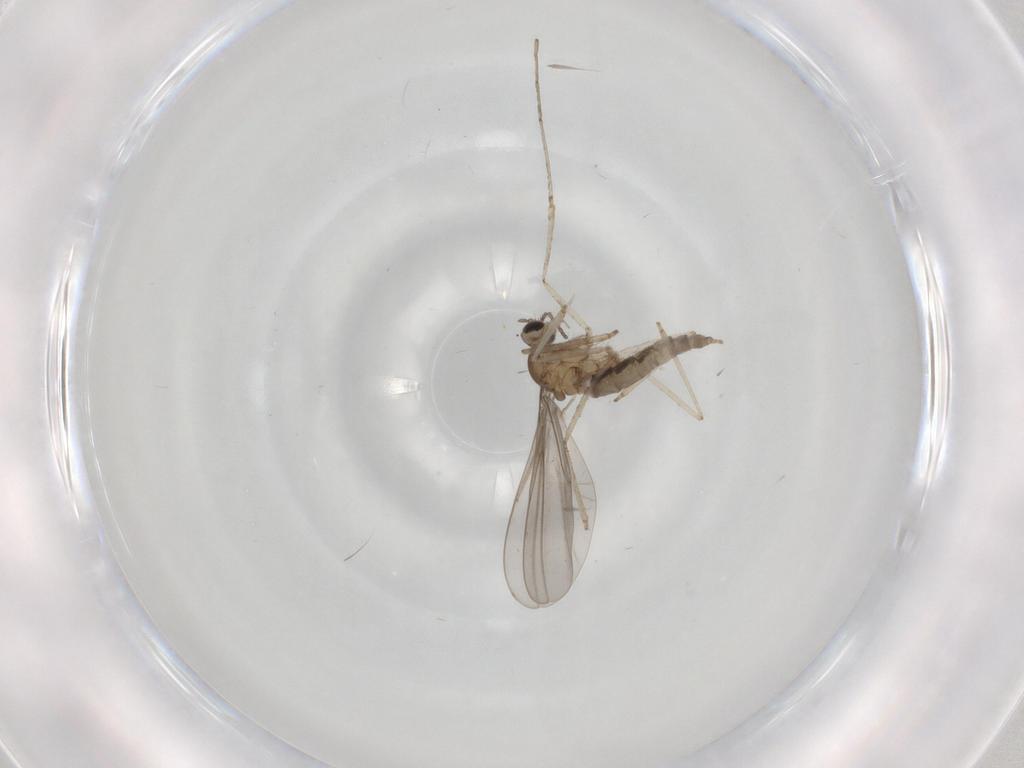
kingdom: Animalia
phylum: Arthropoda
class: Insecta
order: Diptera
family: Cecidomyiidae
